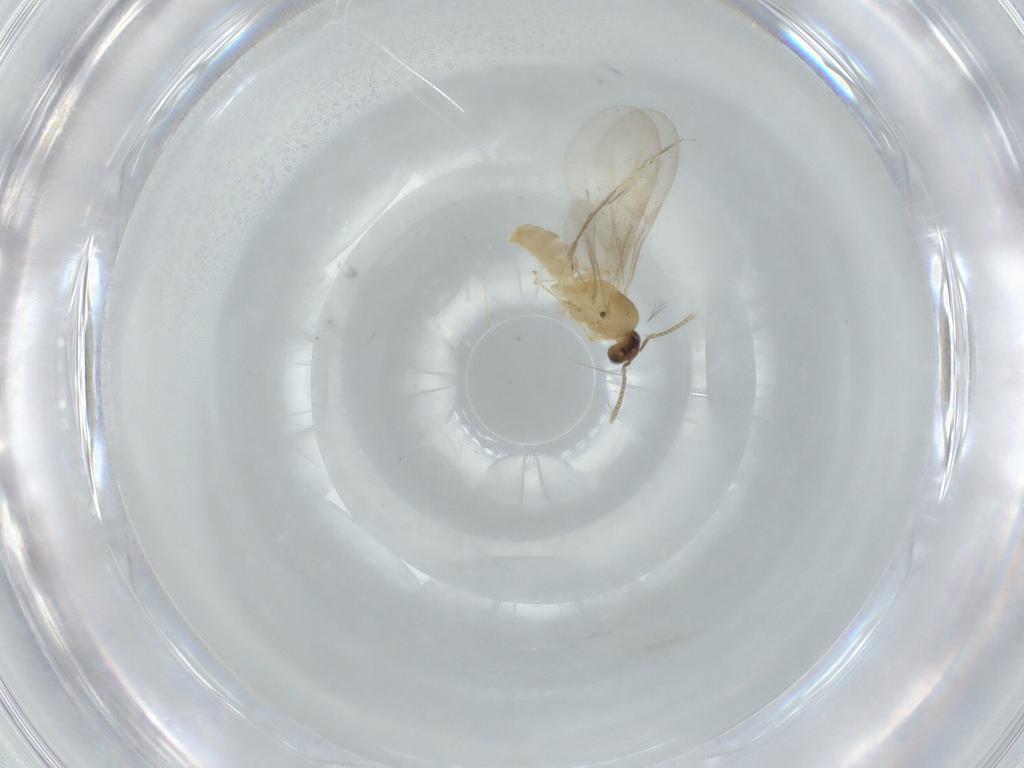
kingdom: Animalia
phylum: Arthropoda
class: Insecta
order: Hymenoptera
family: Formicidae
